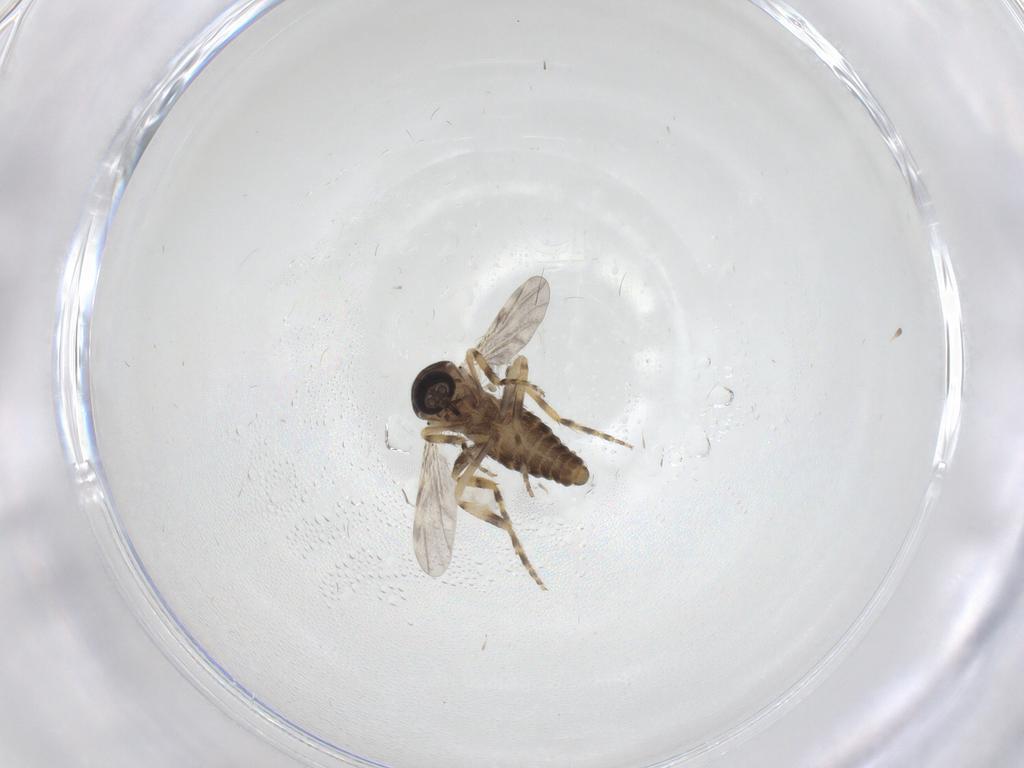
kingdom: Animalia
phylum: Arthropoda
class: Insecta
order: Diptera
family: Ceratopogonidae
